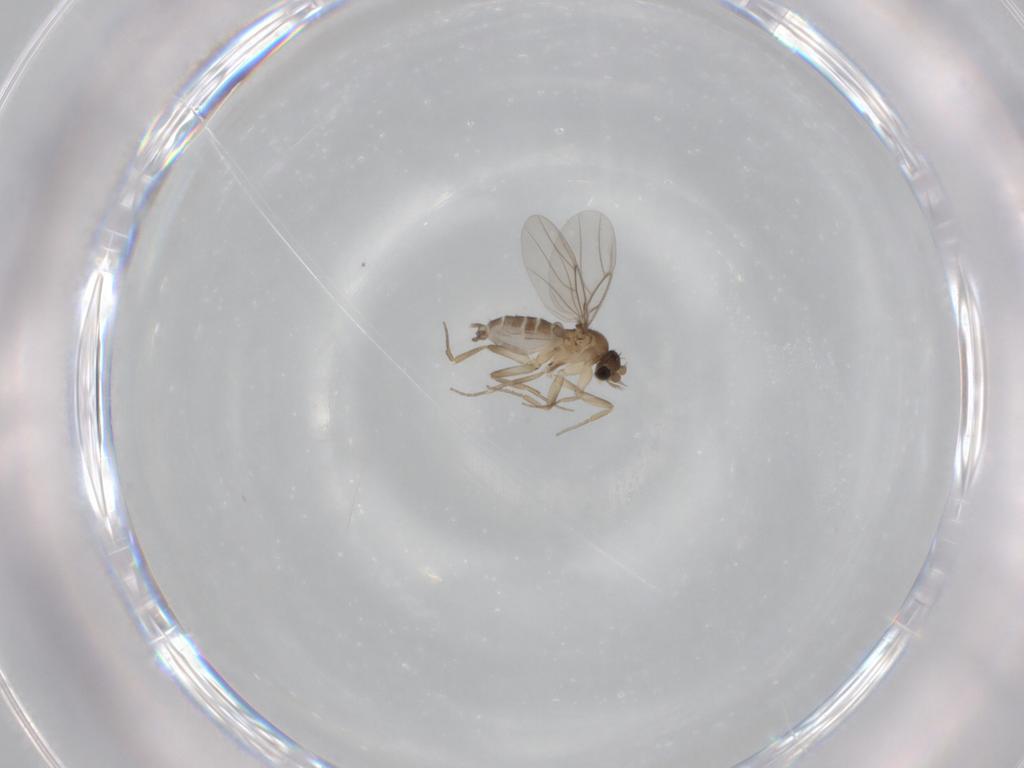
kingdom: Animalia
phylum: Arthropoda
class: Insecta
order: Diptera
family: Phoridae
